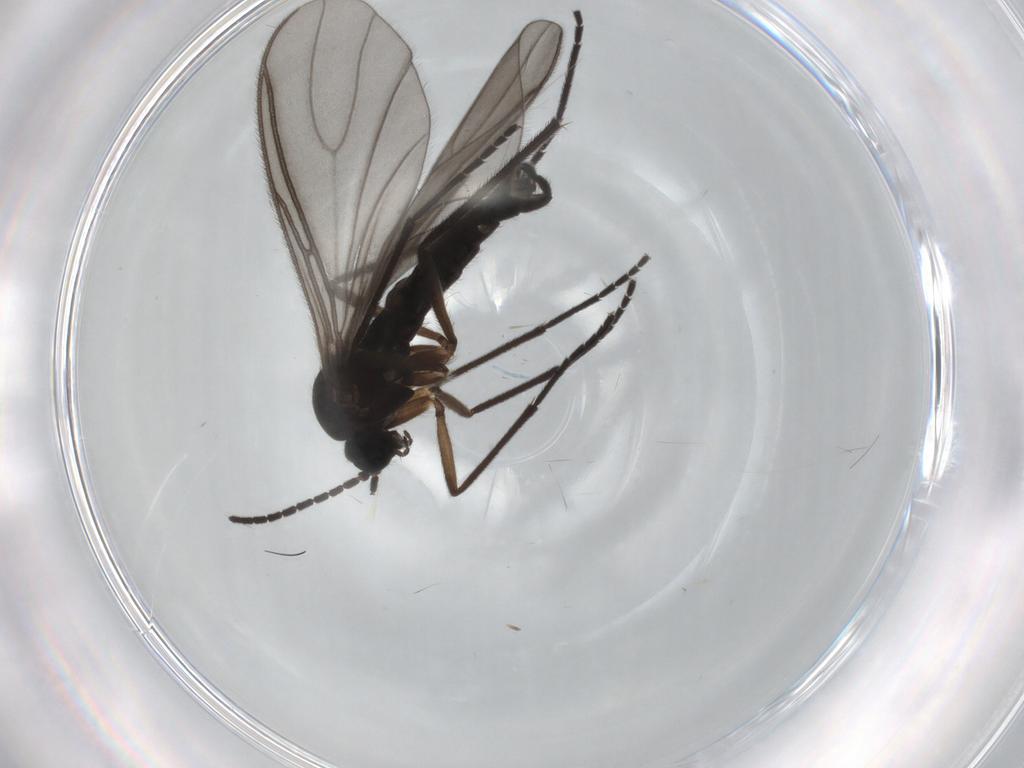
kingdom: Animalia
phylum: Arthropoda
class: Insecta
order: Diptera
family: Sciaridae
